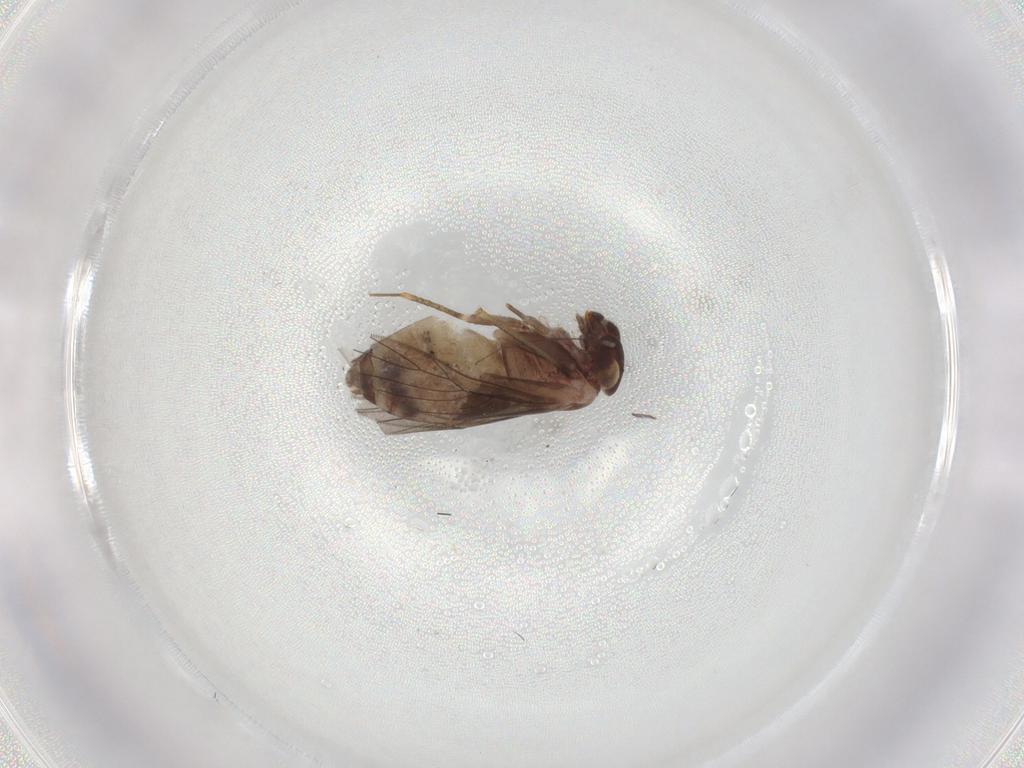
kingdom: Animalia
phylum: Arthropoda
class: Insecta
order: Psocodea
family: Lepidopsocidae
